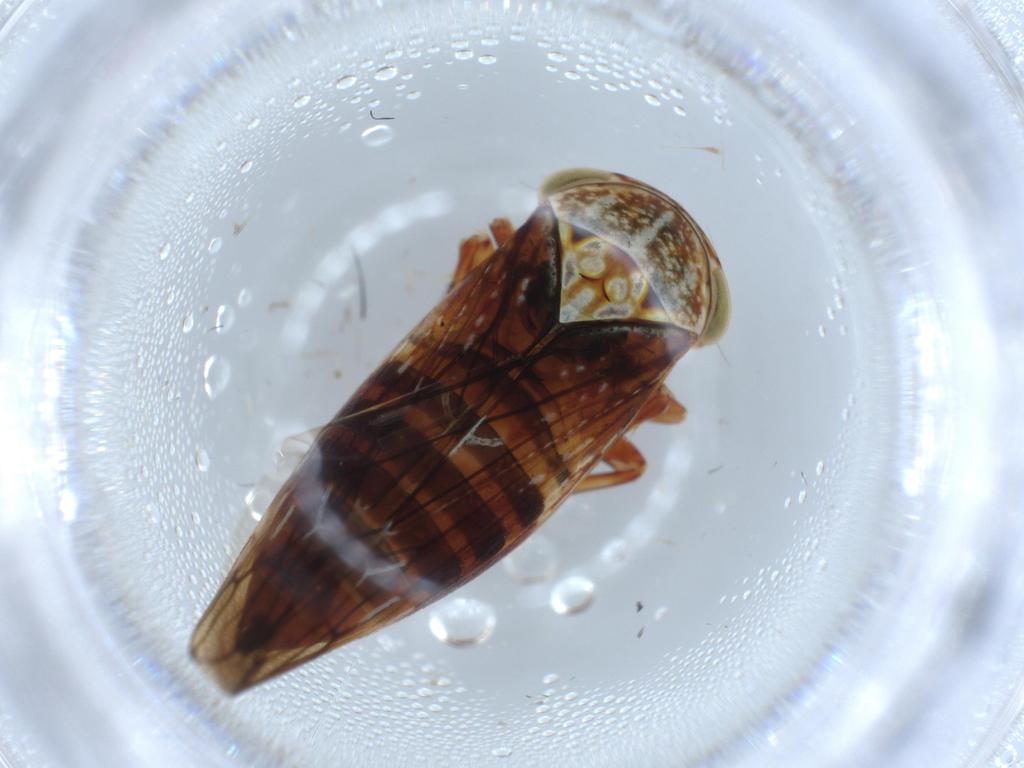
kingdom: Animalia
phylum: Arthropoda
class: Insecta
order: Hemiptera
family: Cicadellidae
